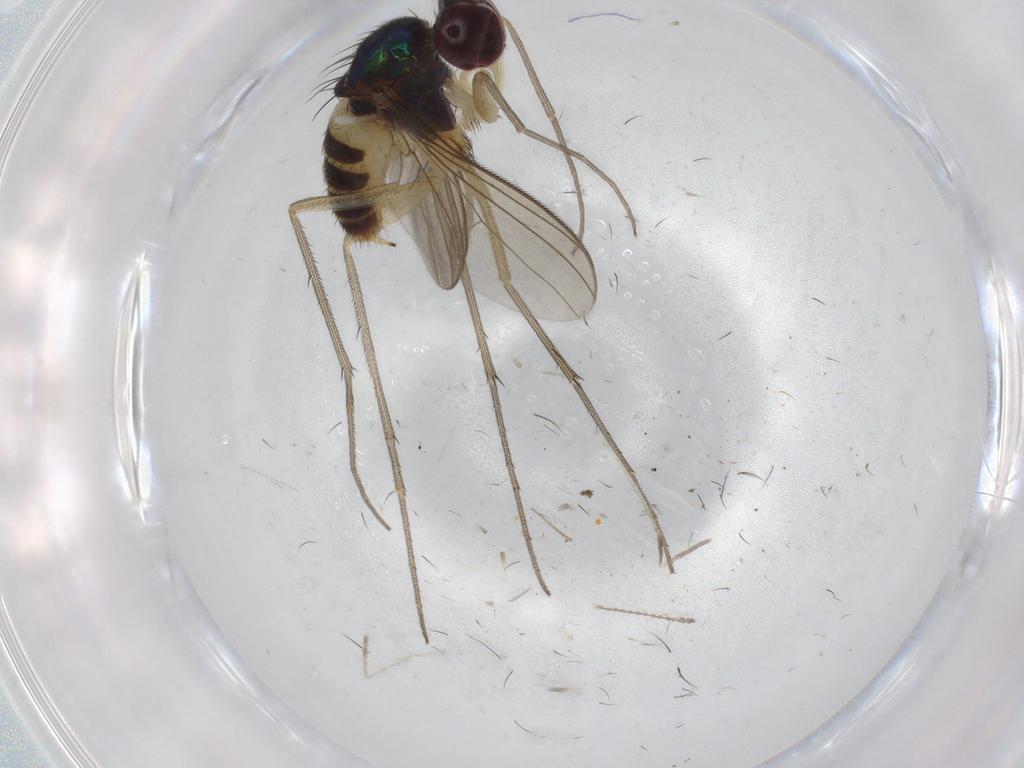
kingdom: Animalia
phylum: Arthropoda
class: Insecta
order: Diptera
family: Dolichopodidae
